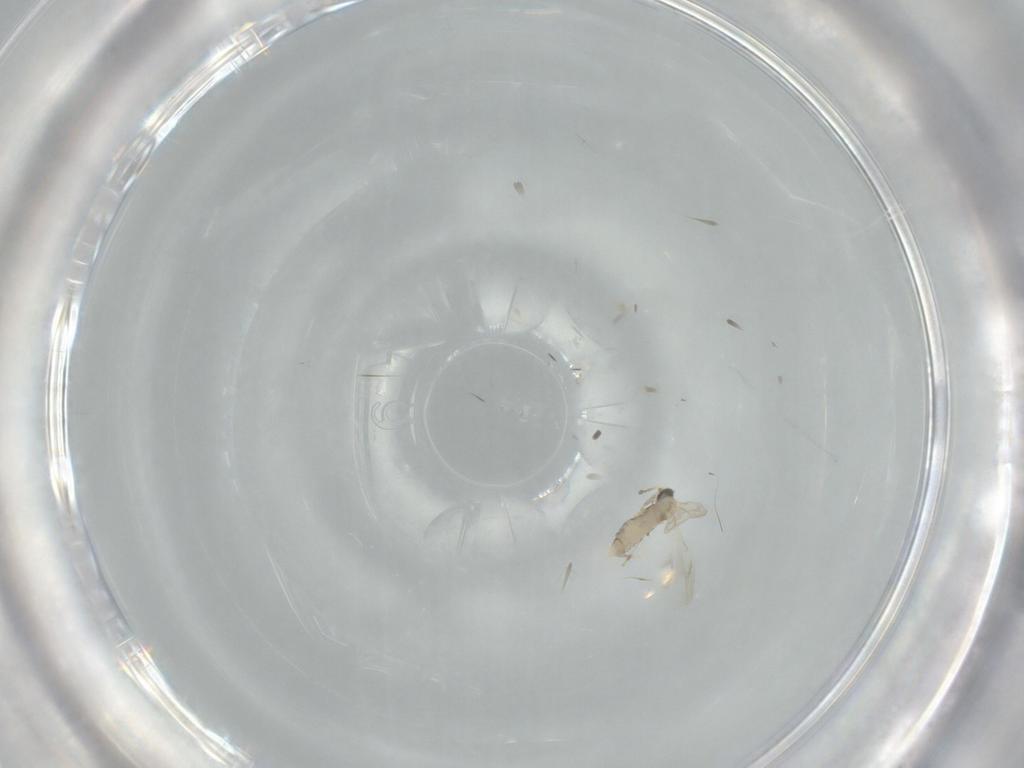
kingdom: Animalia
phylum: Arthropoda
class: Insecta
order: Diptera
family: Cecidomyiidae
